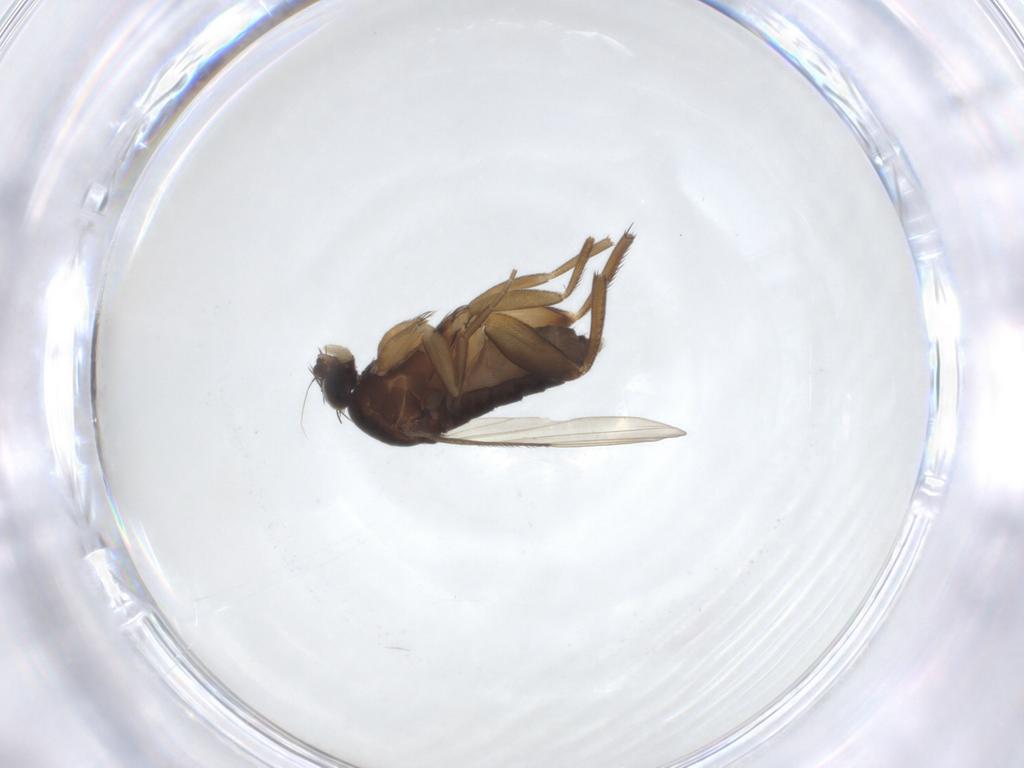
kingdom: Animalia
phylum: Arthropoda
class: Insecta
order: Diptera
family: Phoridae
